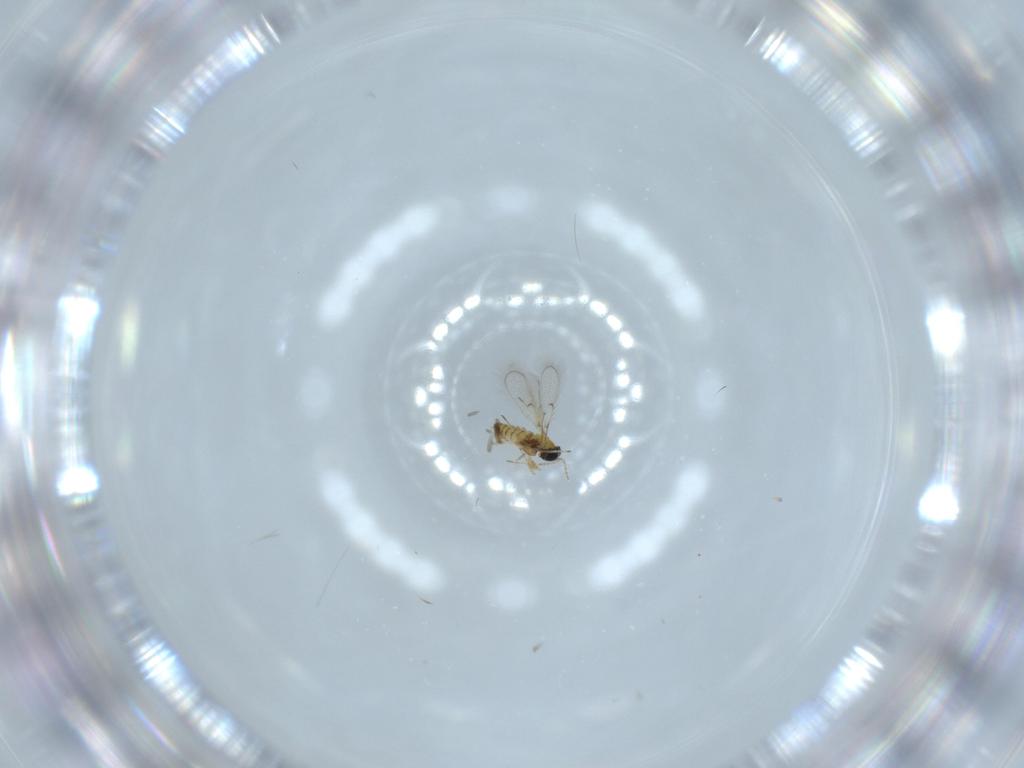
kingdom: Animalia
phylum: Arthropoda
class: Insecta
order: Hymenoptera
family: Trichogrammatidae
